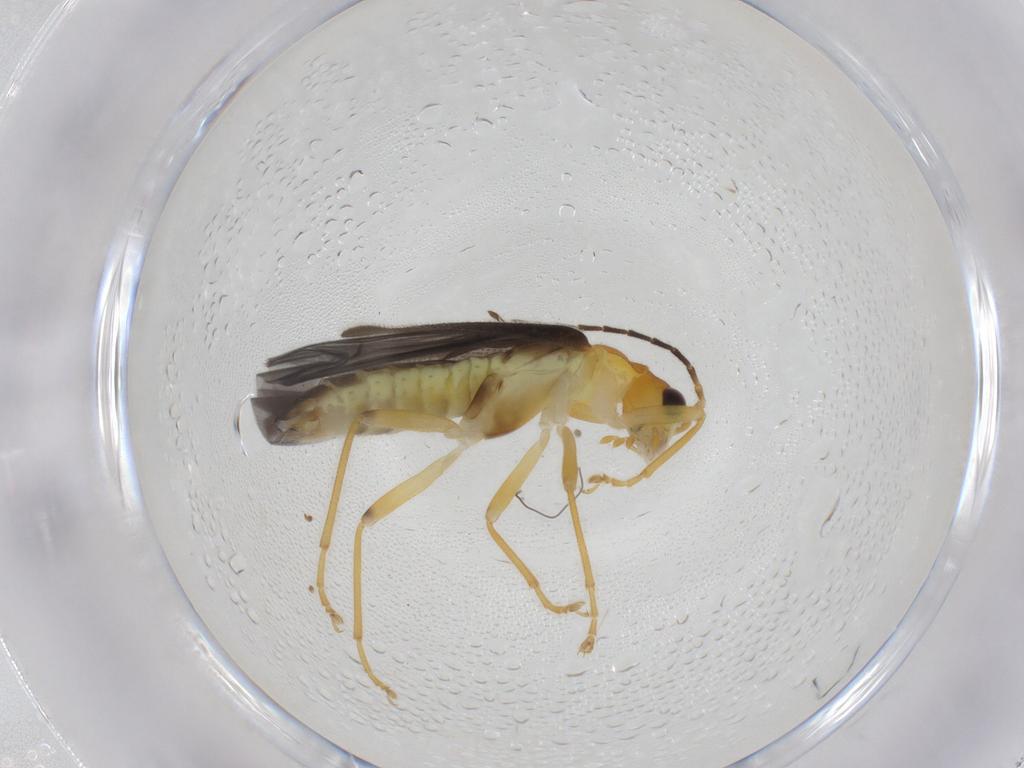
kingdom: Animalia
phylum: Arthropoda
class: Insecta
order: Coleoptera
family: Cantharidae
